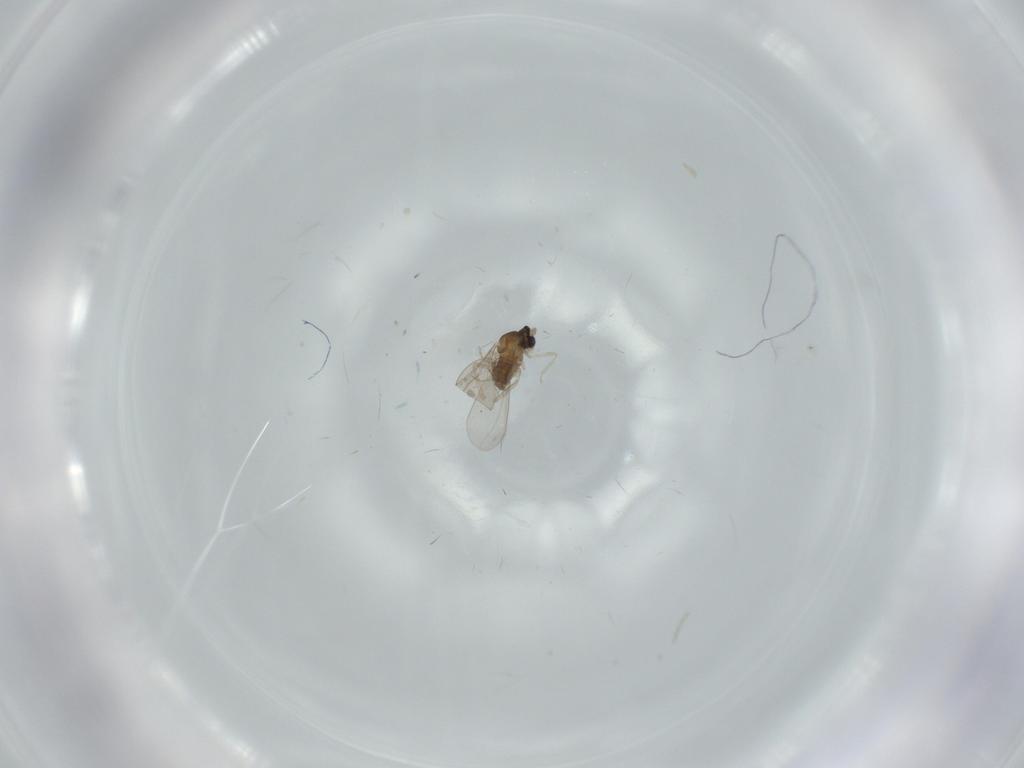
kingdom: Animalia
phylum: Arthropoda
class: Insecta
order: Diptera
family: Cecidomyiidae
